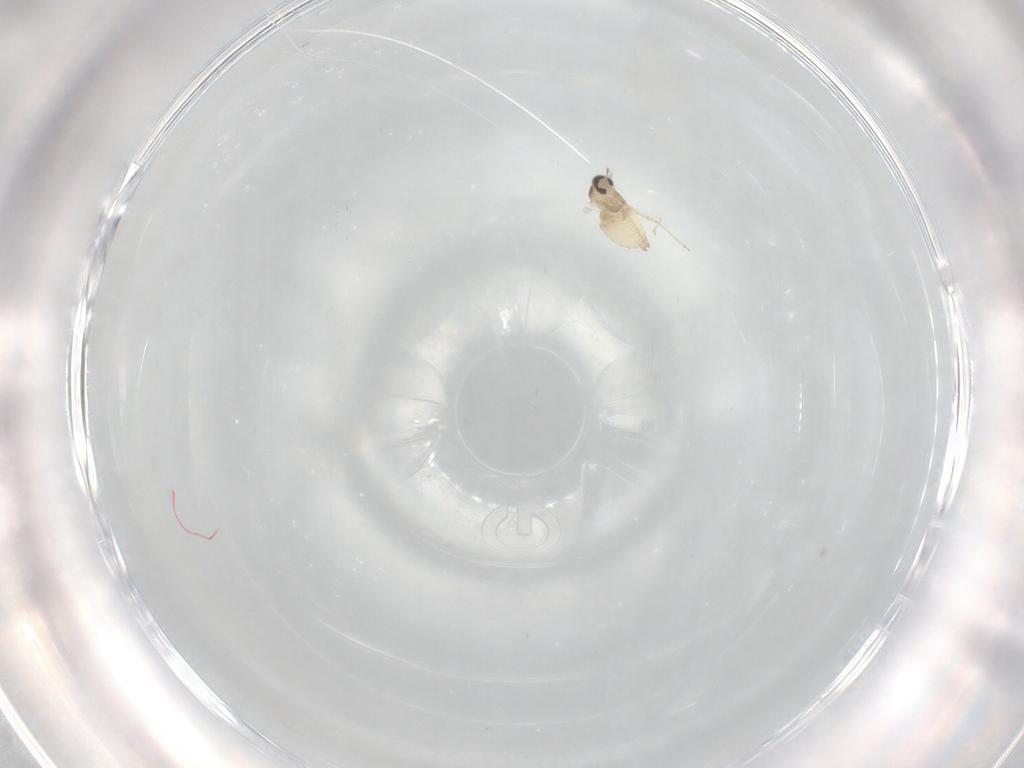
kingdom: Animalia
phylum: Arthropoda
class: Insecta
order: Diptera
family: Cecidomyiidae
